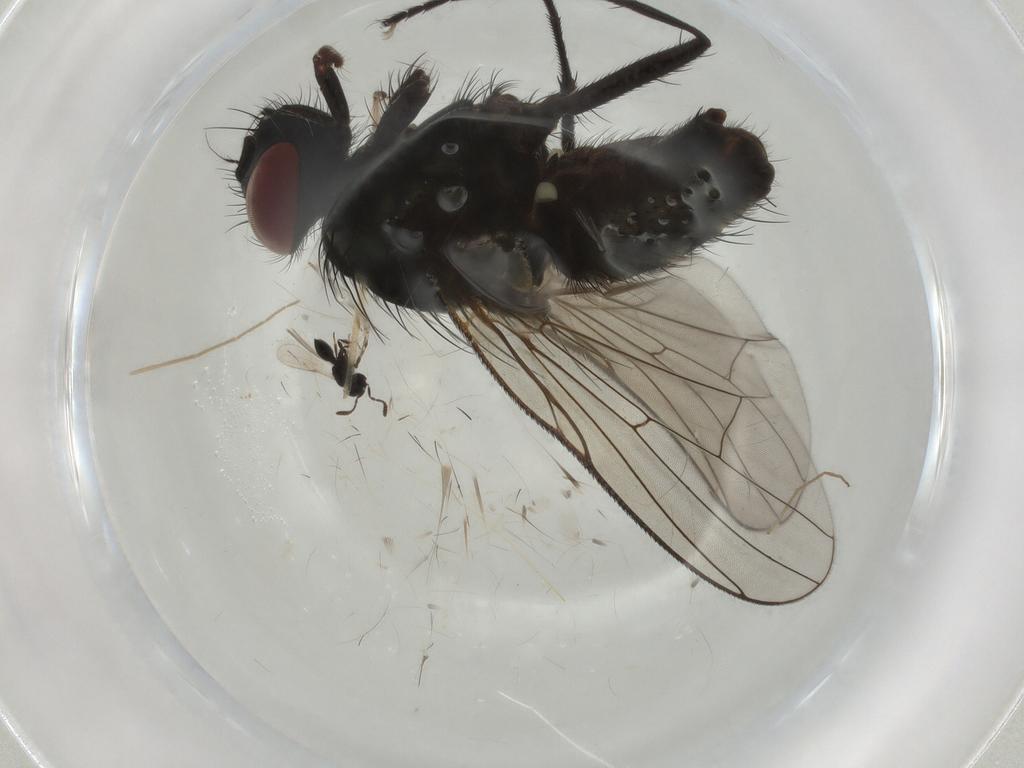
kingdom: Animalia
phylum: Arthropoda
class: Insecta
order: Diptera
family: Muscidae
